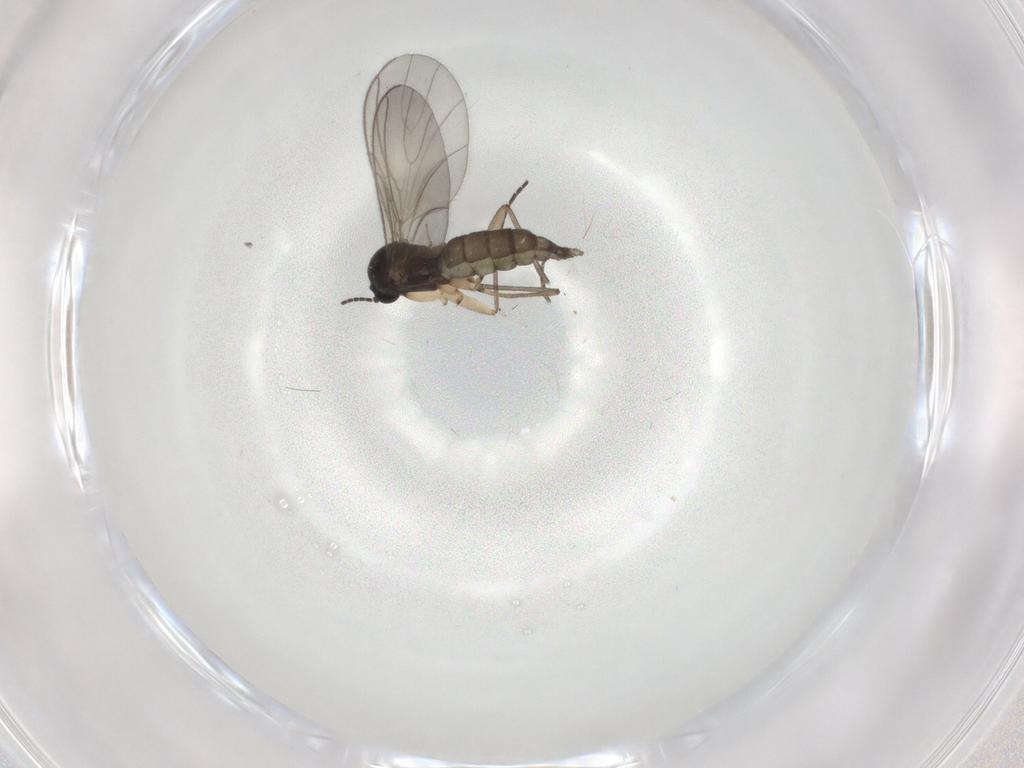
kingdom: Animalia
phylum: Arthropoda
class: Insecta
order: Diptera
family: Sciaridae
